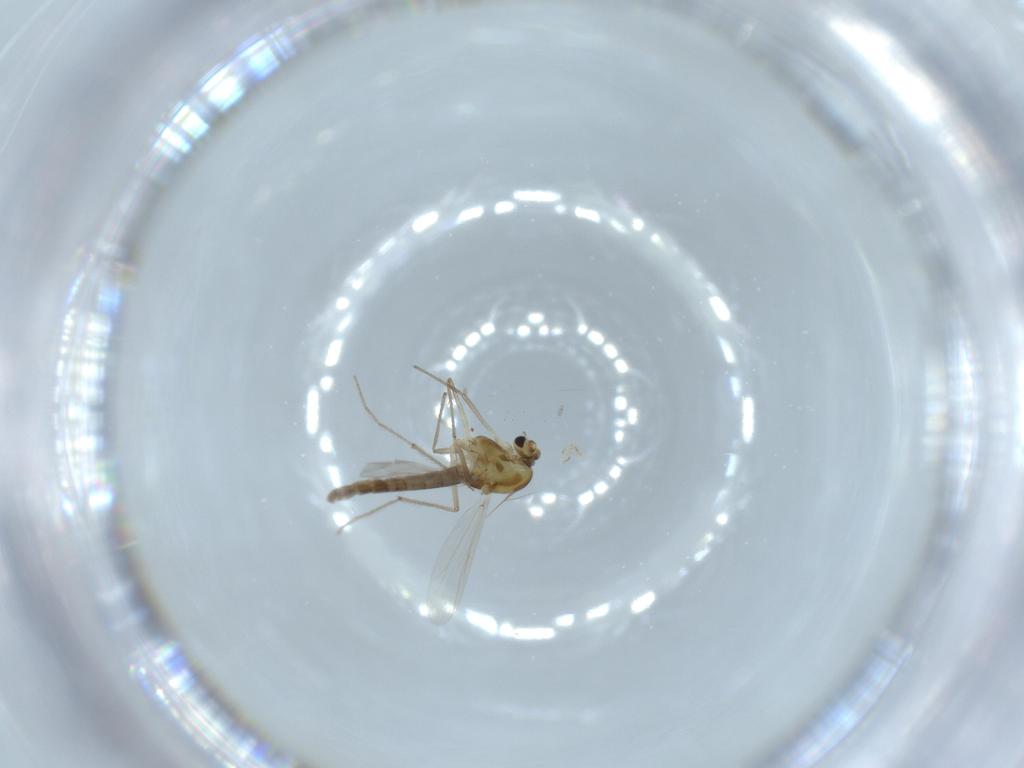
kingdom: Animalia
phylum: Arthropoda
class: Insecta
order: Diptera
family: Chironomidae
